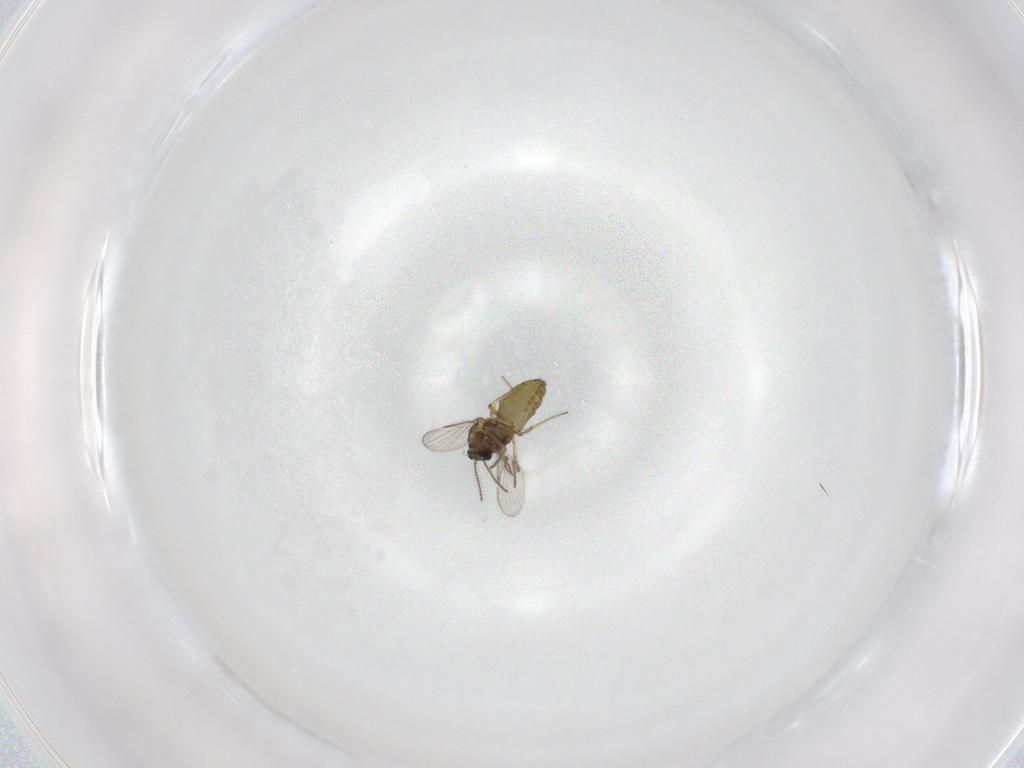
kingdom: Animalia
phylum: Arthropoda
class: Insecta
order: Diptera
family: Ceratopogonidae
